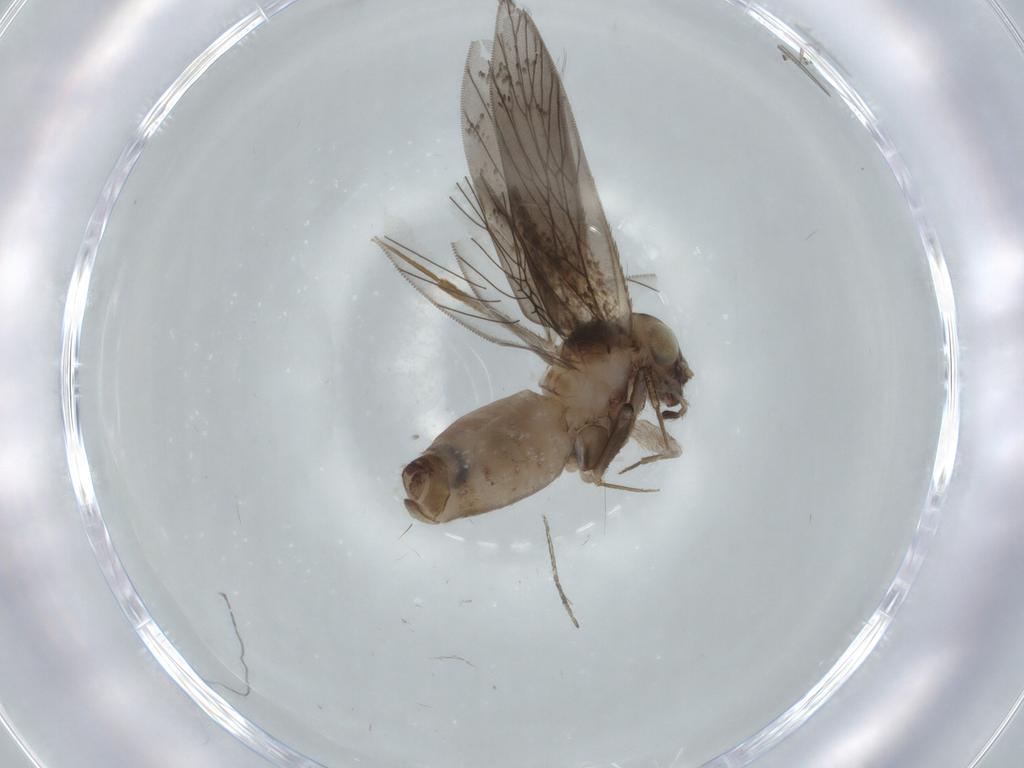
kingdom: Animalia
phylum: Arthropoda
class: Insecta
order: Psocodea
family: Lepidopsocidae
